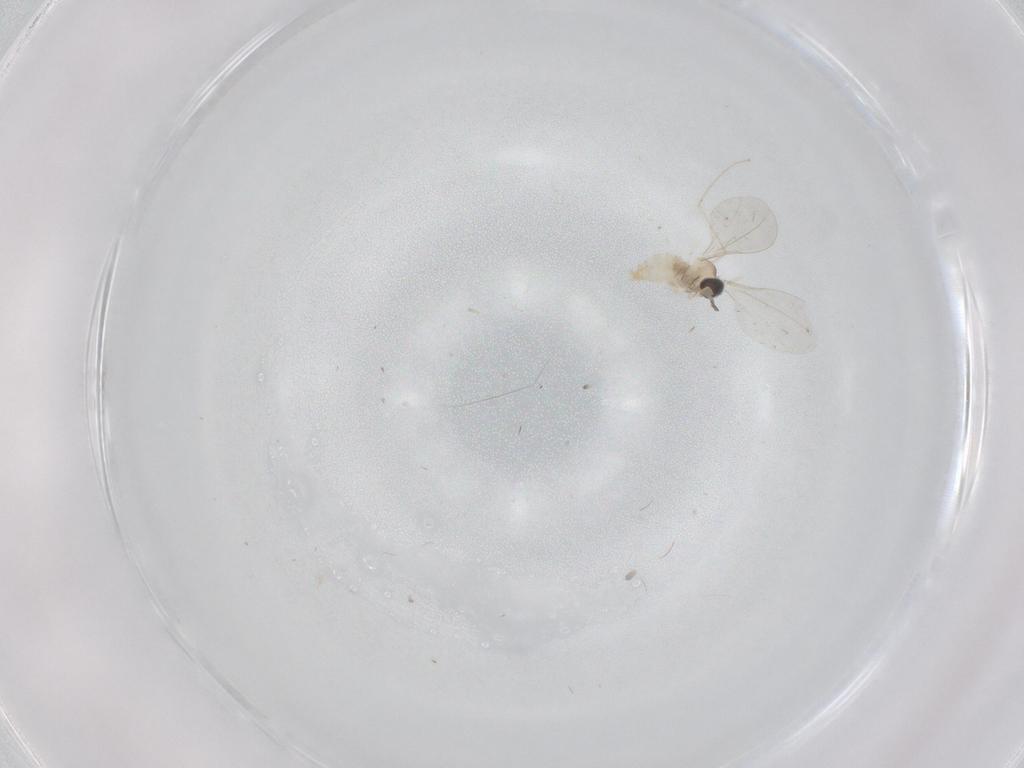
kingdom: Animalia
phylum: Arthropoda
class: Insecta
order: Diptera
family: Cecidomyiidae
